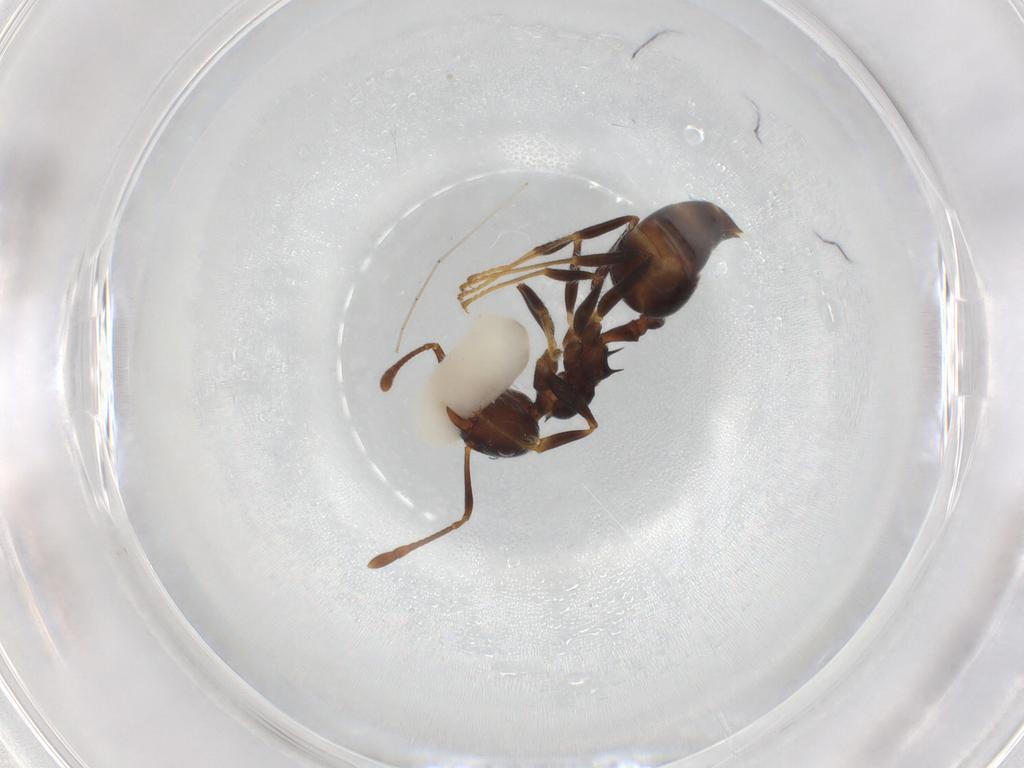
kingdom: Animalia
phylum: Arthropoda
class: Insecta
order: Hymenoptera
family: Formicidae
